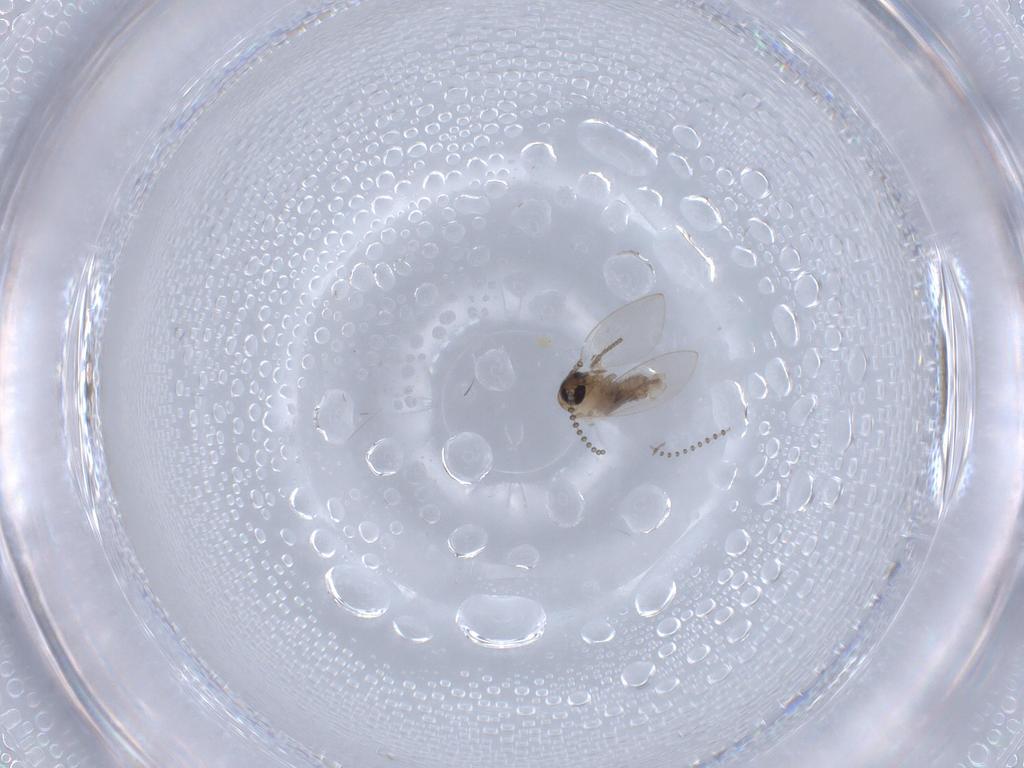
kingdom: Animalia
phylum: Arthropoda
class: Insecta
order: Diptera
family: Psychodidae
